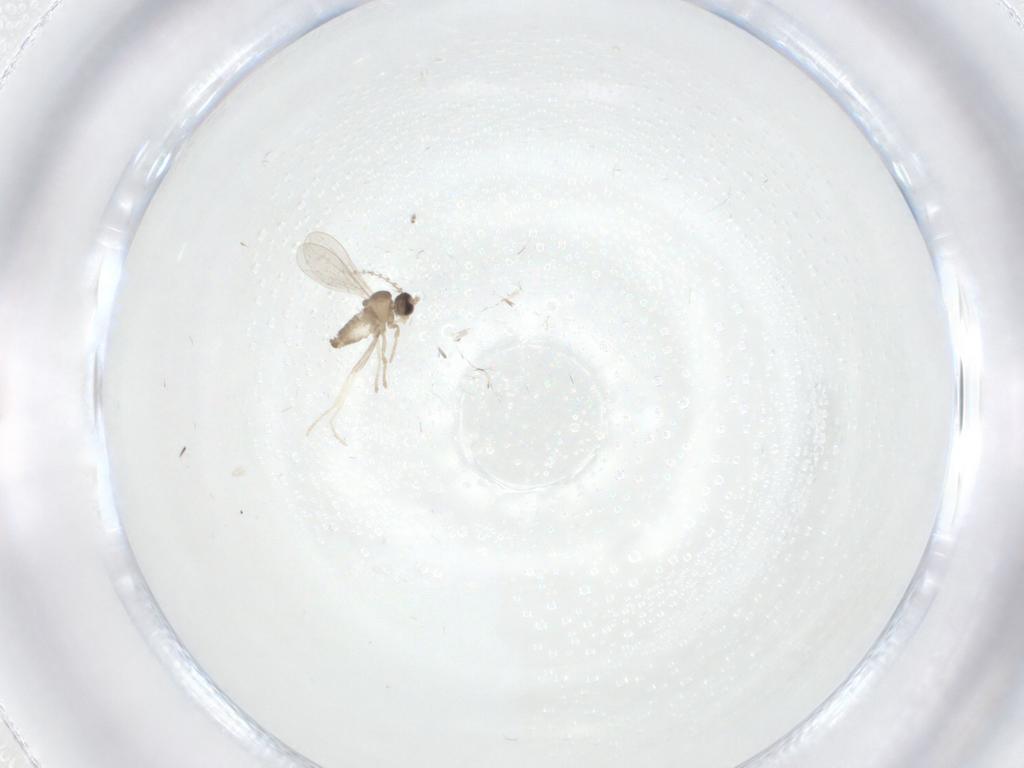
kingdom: Animalia
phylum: Arthropoda
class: Insecta
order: Diptera
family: Cecidomyiidae
